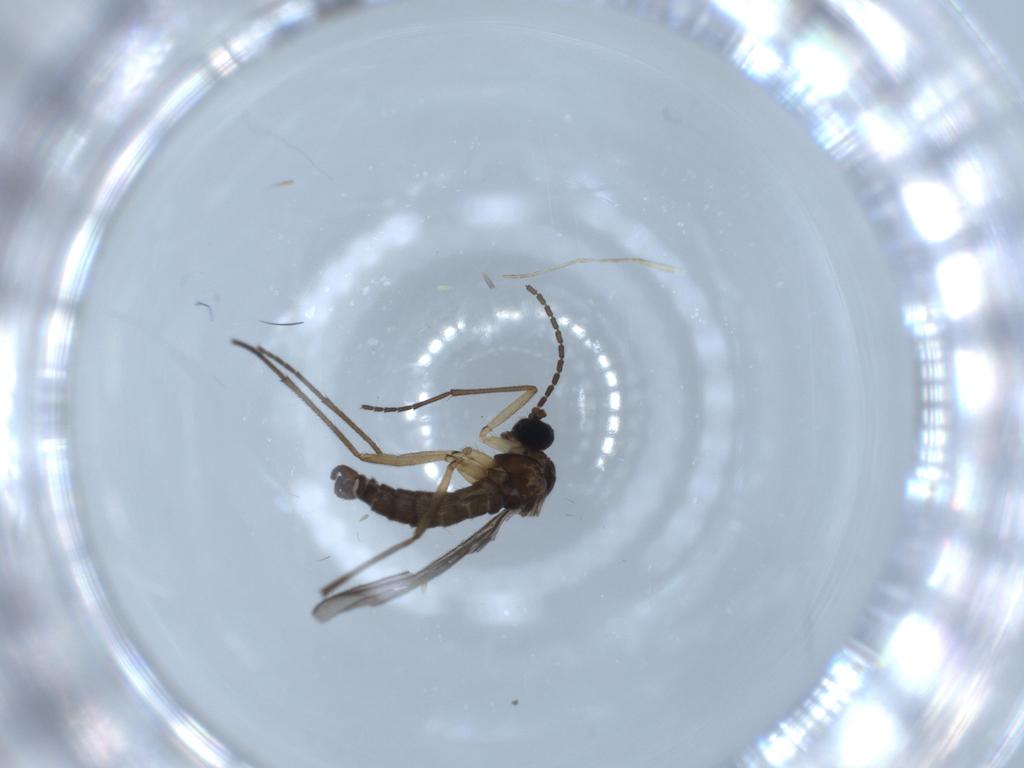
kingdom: Animalia
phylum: Arthropoda
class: Insecta
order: Diptera
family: Sciaridae
